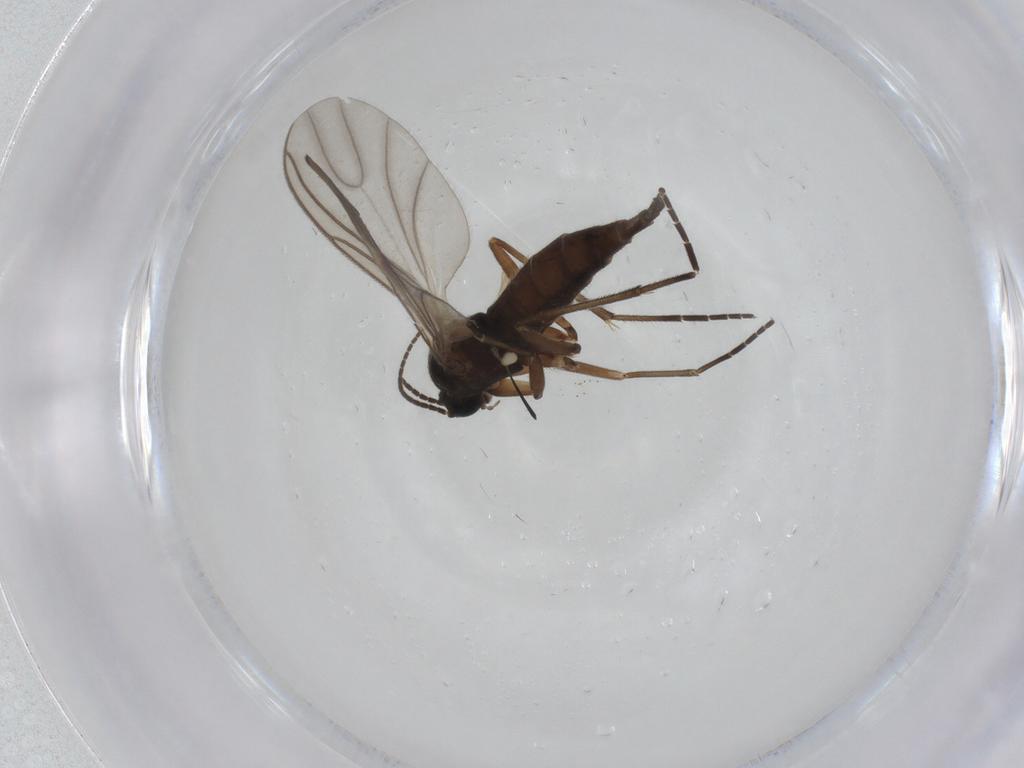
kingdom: Animalia
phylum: Arthropoda
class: Insecta
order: Diptera
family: Sciaridae
